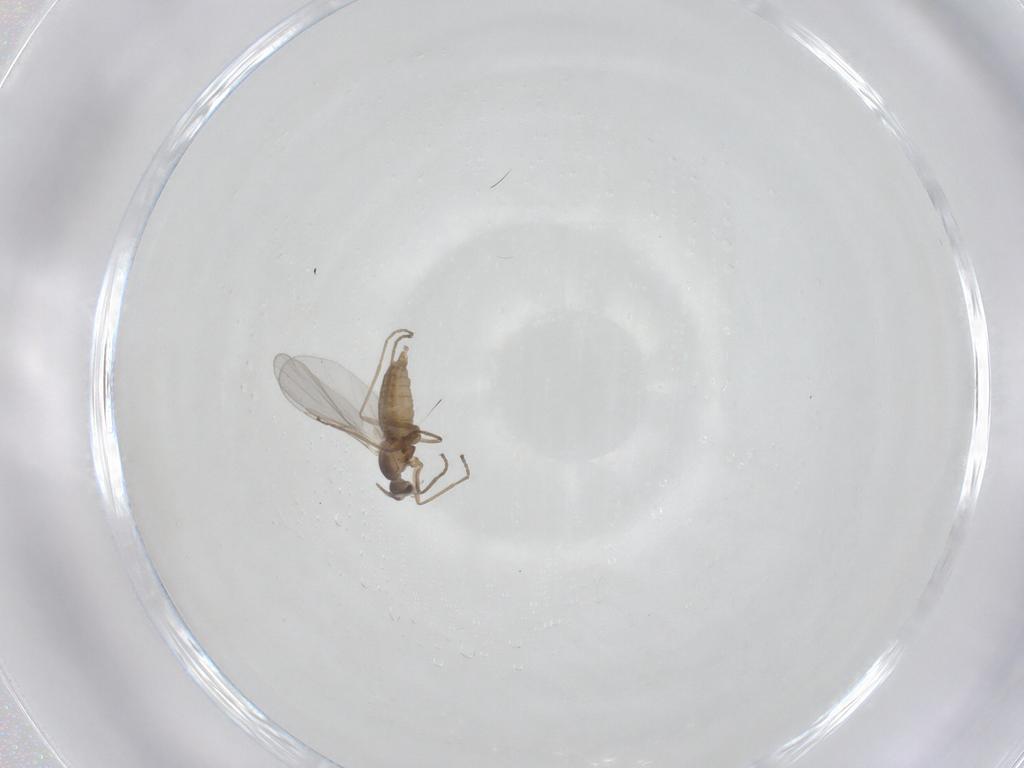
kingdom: Animalia
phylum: Arthropoda
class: Insecta
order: Diptera
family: Cecidomyiidae
